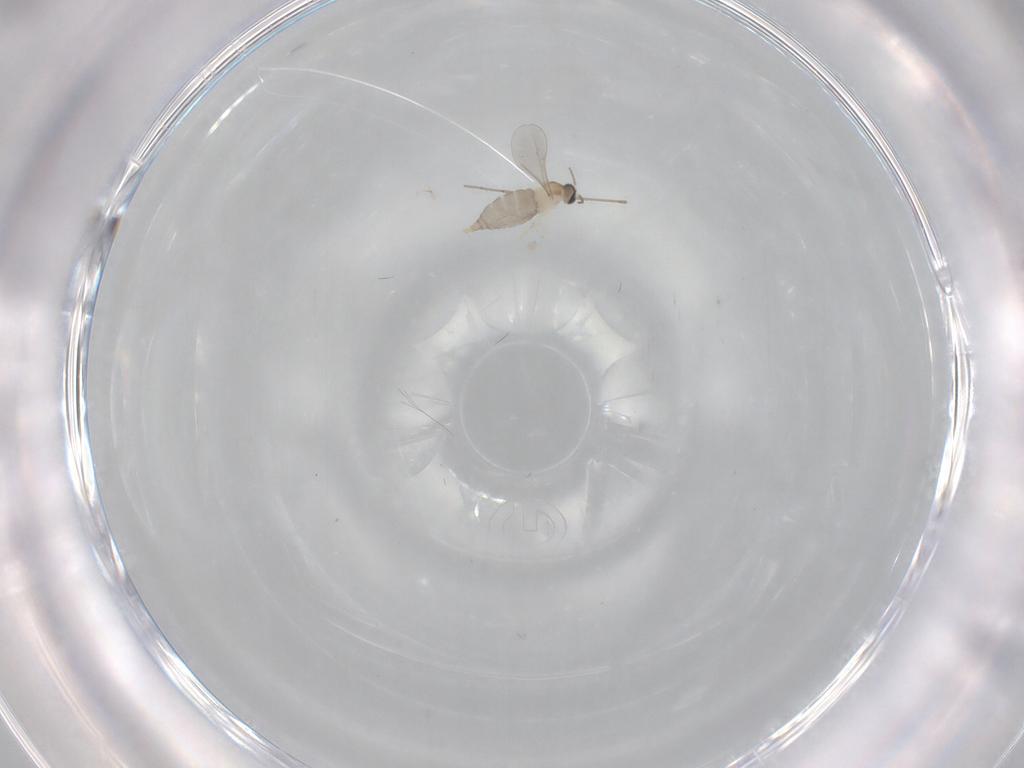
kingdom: Animalia
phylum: Arthropoda
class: Insecta
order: Diptera
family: Cecidomyiidae
